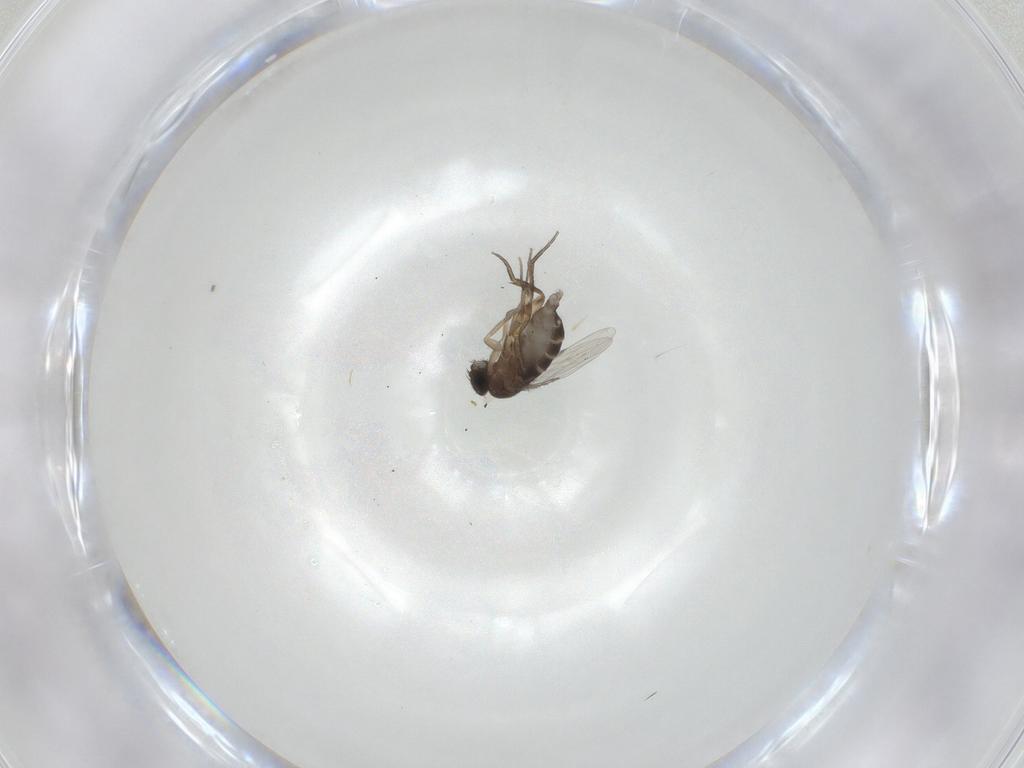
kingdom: Animalia
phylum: Arthropoda
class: Insecta
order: Diptera
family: Phoridae
